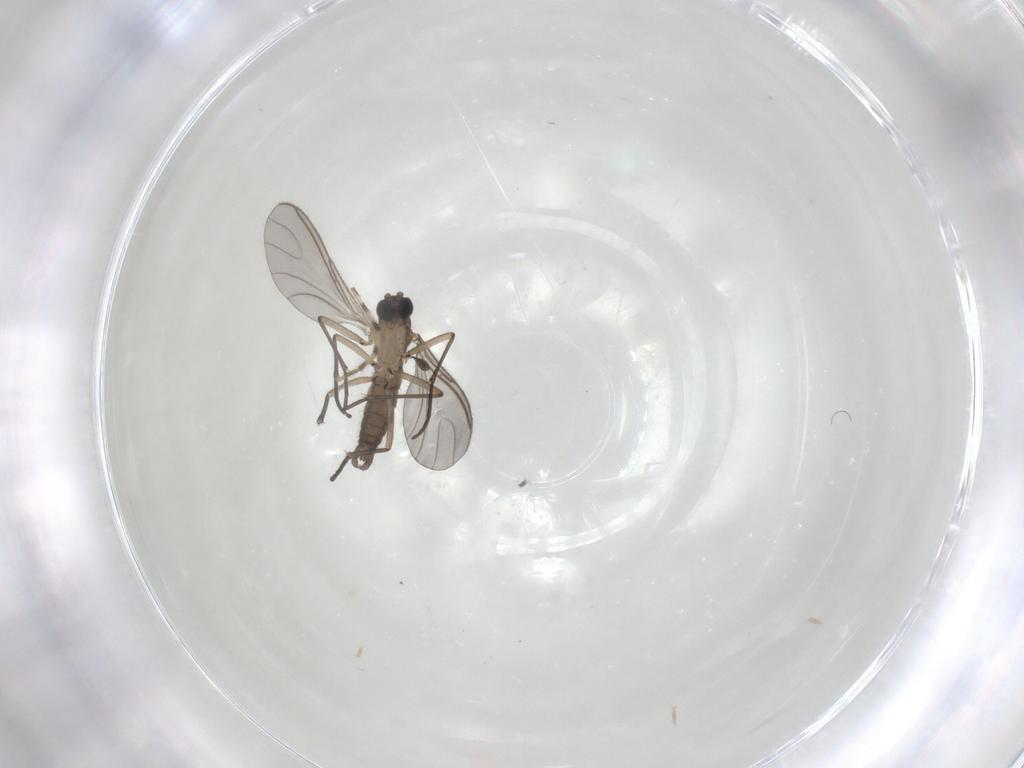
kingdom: Animalia
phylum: Arthropoda
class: Insecta
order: Diptera
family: Sciaridae
